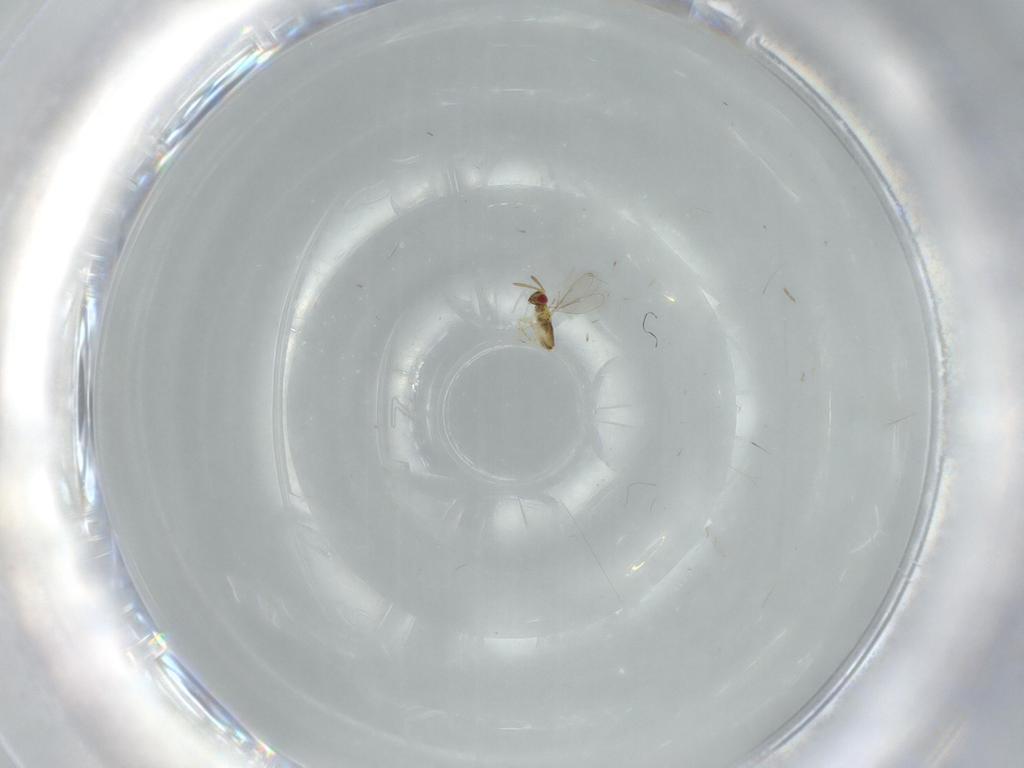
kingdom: Animalia
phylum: Arthropoda
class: Insecta
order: Hymenoptera
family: Aphelinidae
